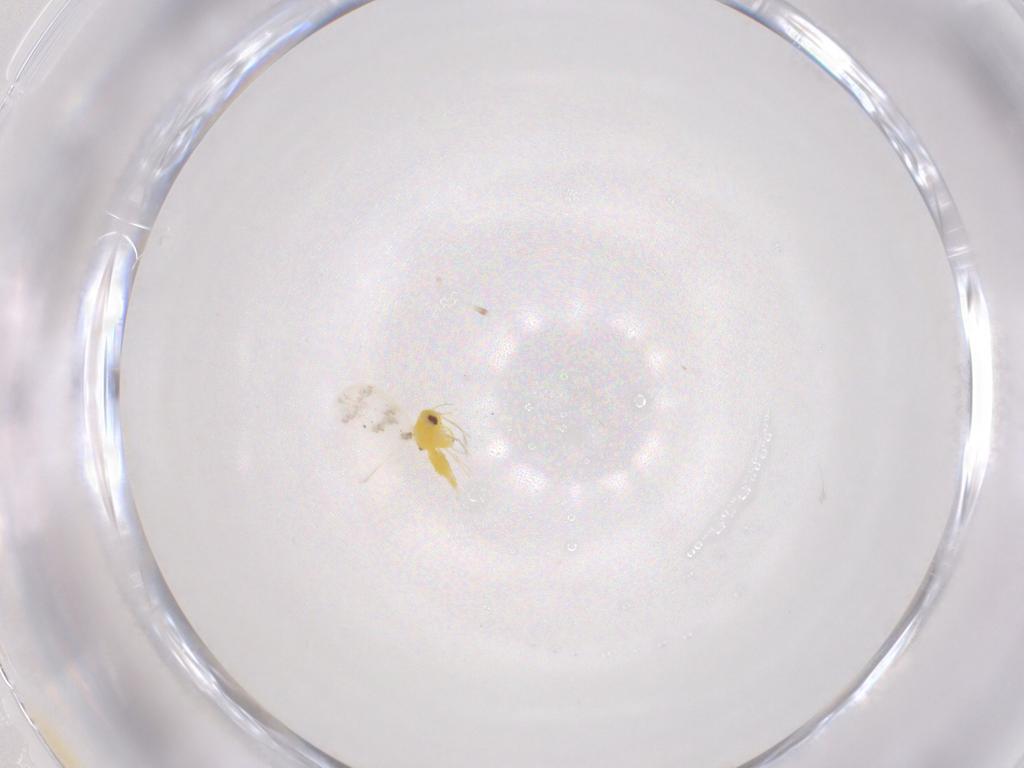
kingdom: Animalia
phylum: Arthropoda
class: Insecta
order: Hemiptera
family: Aleyrodidae
